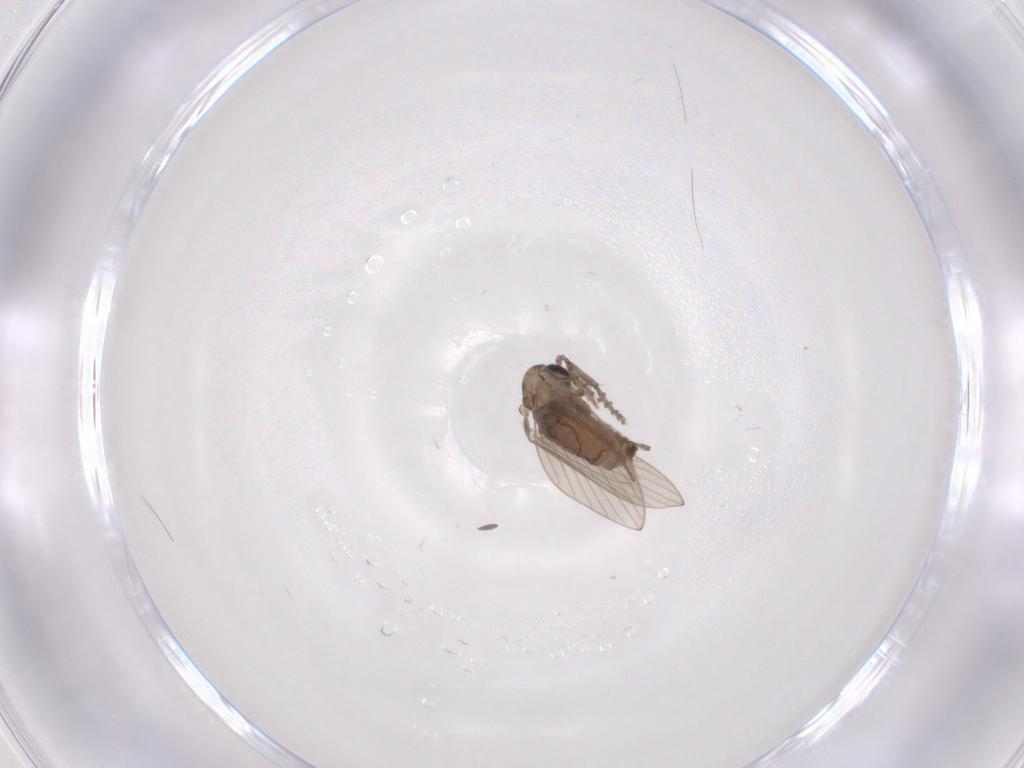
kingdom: Animalia
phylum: Arthropoda
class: Insecta
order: Diptera
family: Psychodidae
